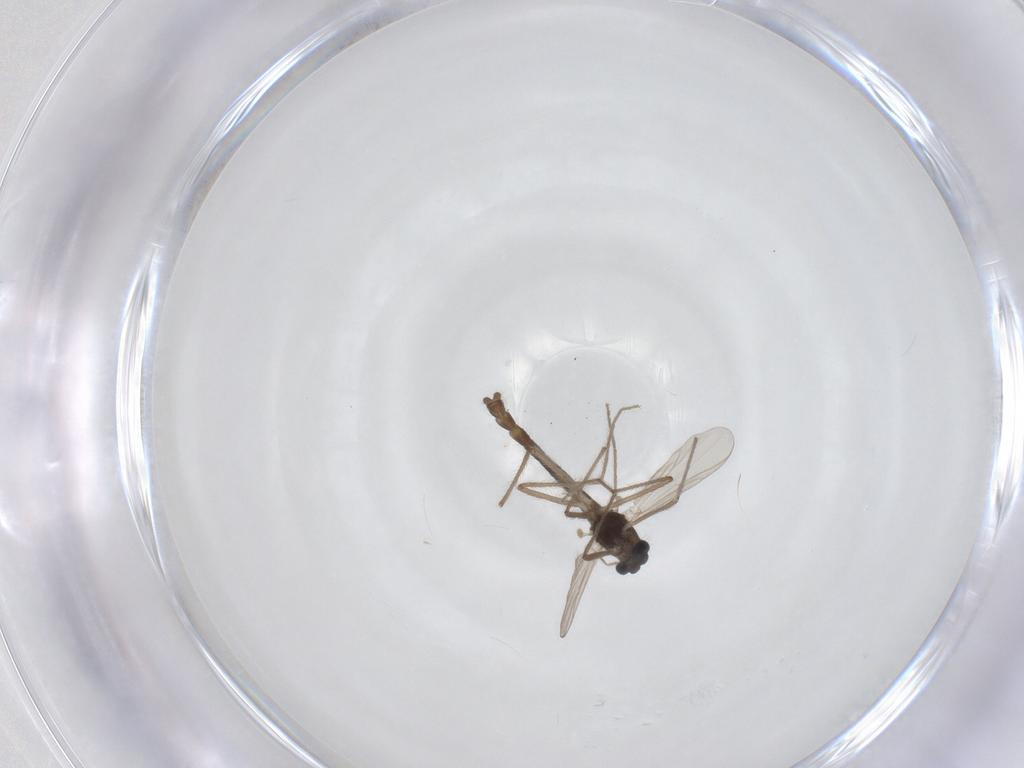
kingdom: Animalia
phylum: Arthropoda
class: Insecta
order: Diptera
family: Chironomidae
